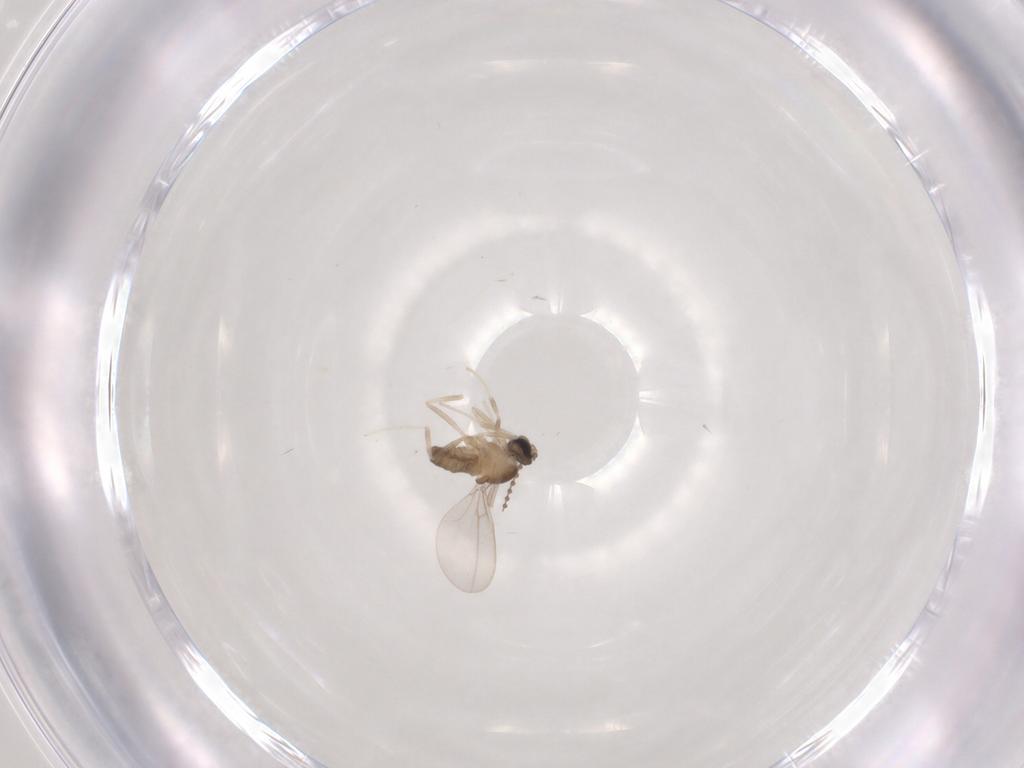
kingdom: Animalia
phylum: Arthropoda
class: Insecta
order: Diptera
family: Cecidomyiidae
